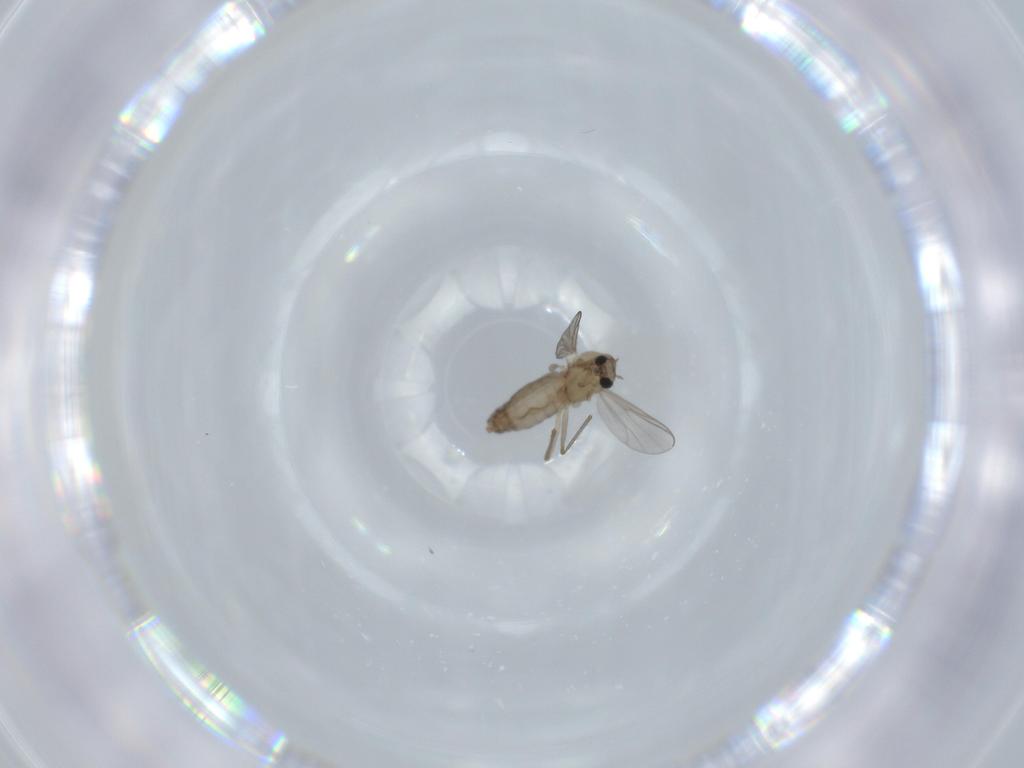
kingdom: Animalia
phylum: Arthropoda
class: Insecta
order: Diptera
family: Chironomidae
